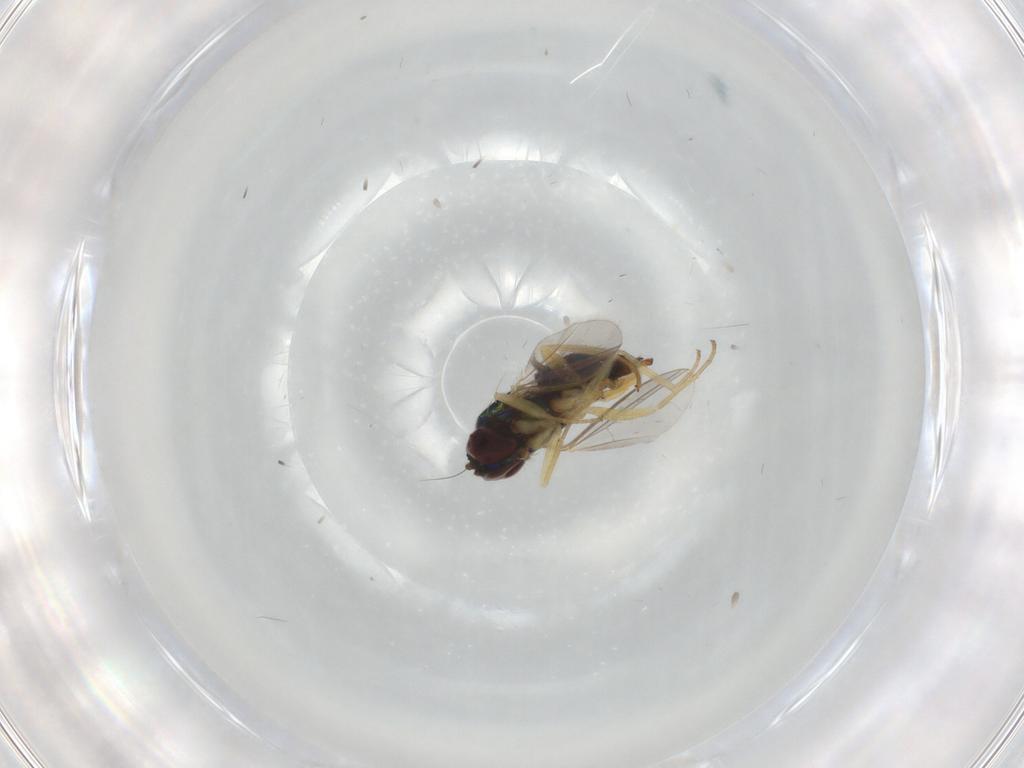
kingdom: Animalia
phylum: Arthropoda
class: Insecta
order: Diptera
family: Dolichopodidae
